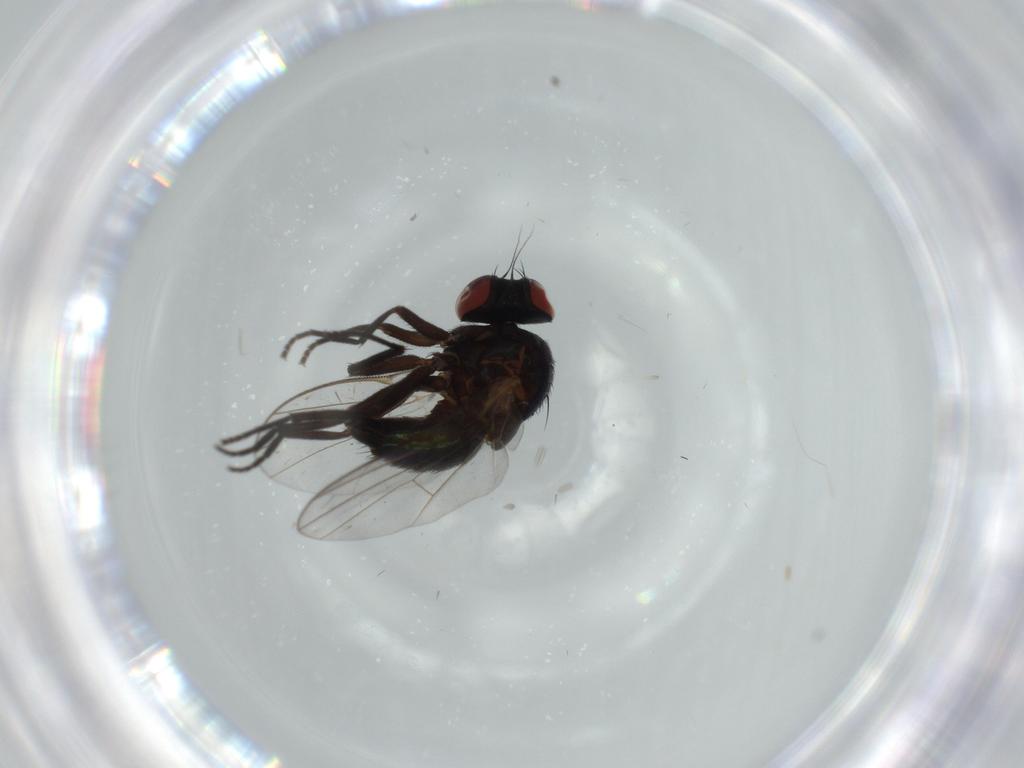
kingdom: Animalia
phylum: Arthropoda
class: Insecta
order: Diptera
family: Agromyzidae
